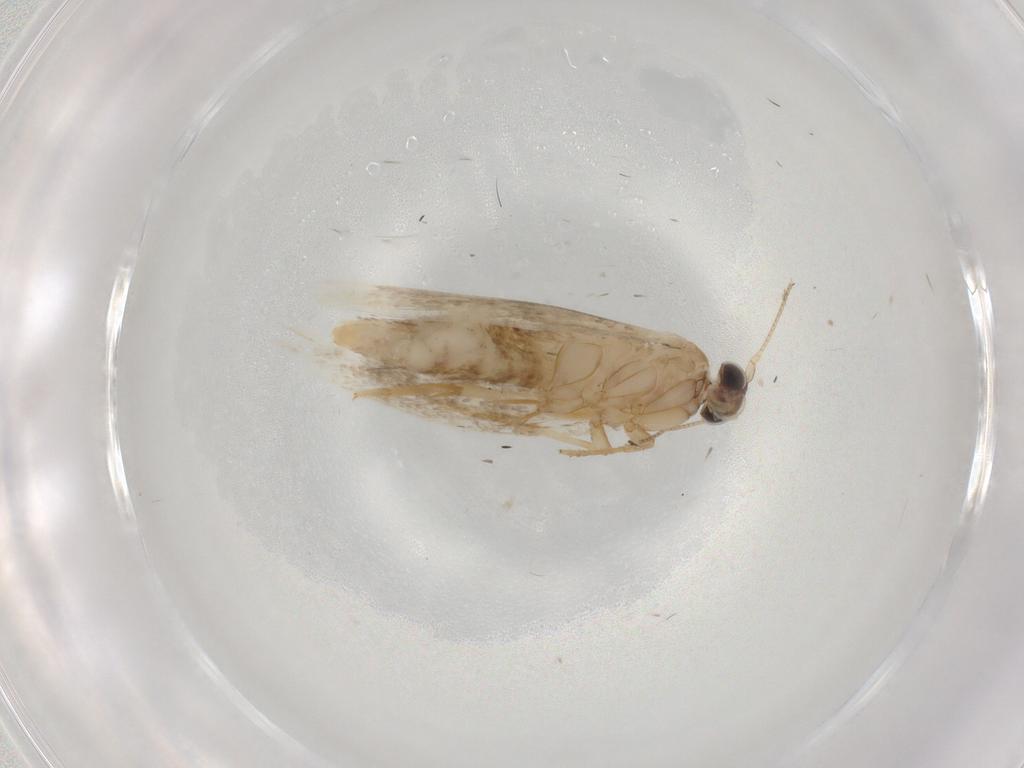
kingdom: Animalia
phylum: Arthropoda
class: Insecta
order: Lepidoptera
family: Nepticulidae
